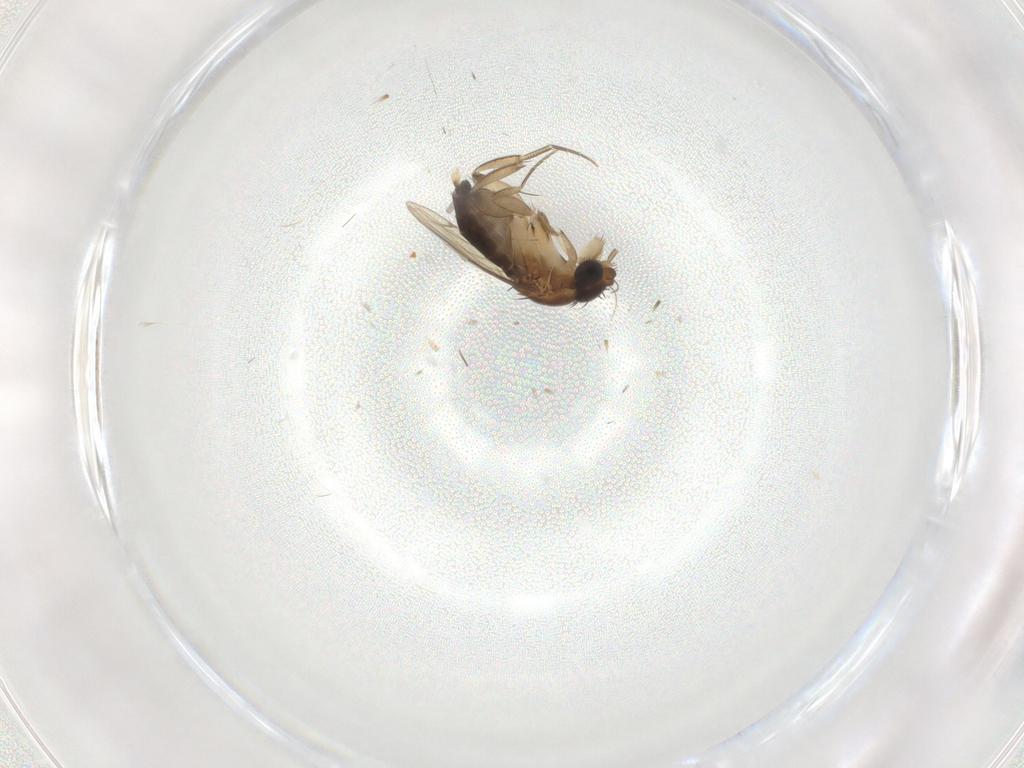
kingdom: Animalia
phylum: Arthropoda
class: Insecta
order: Diptera
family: Phoridae
